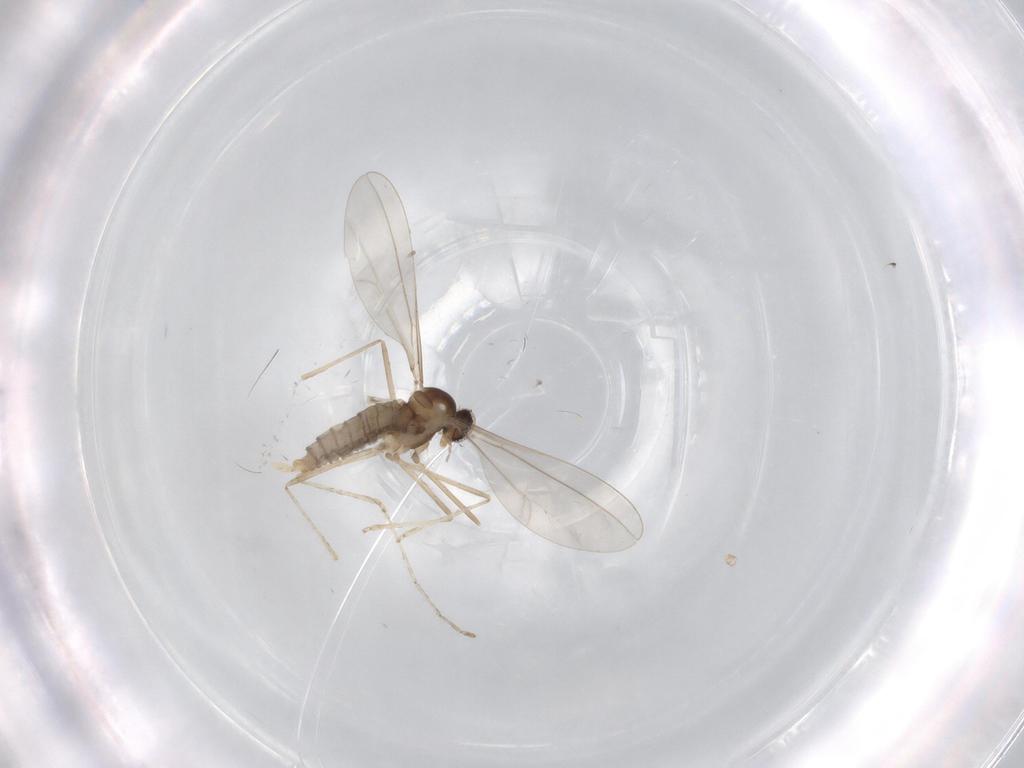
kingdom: Animalia
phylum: Arthropoda
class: Insecta
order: Diptera
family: Cecidomyiidae
